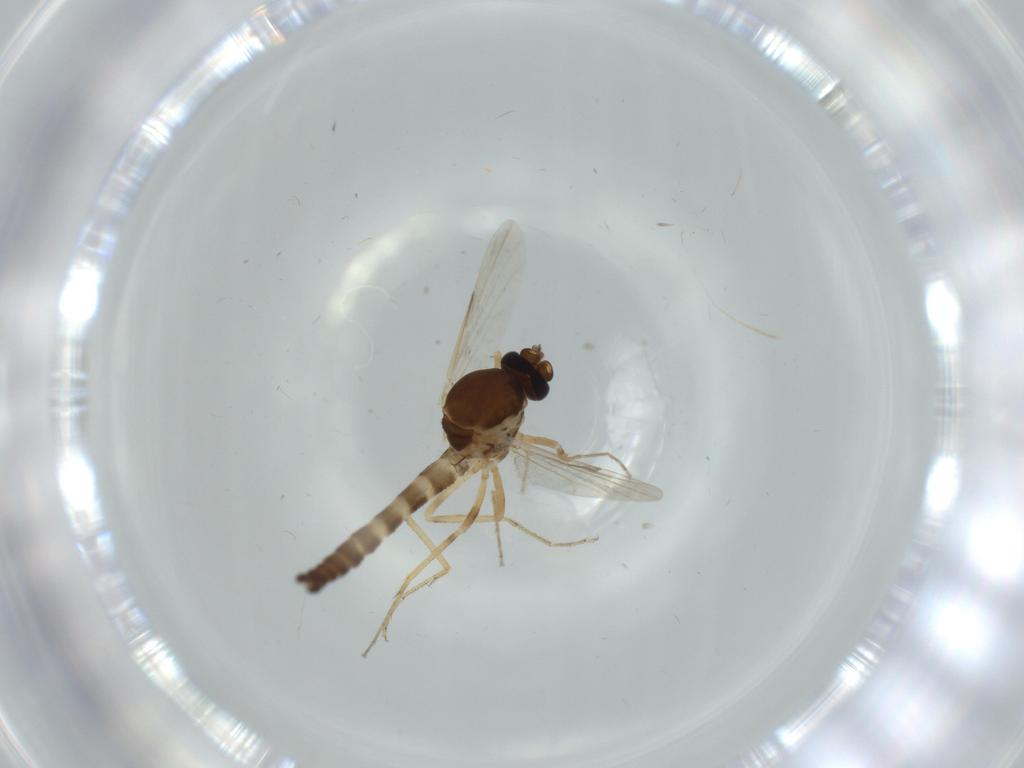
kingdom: Animalia
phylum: Arthropoda
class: Insecta
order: Diptera
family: Ceratopogonidae
